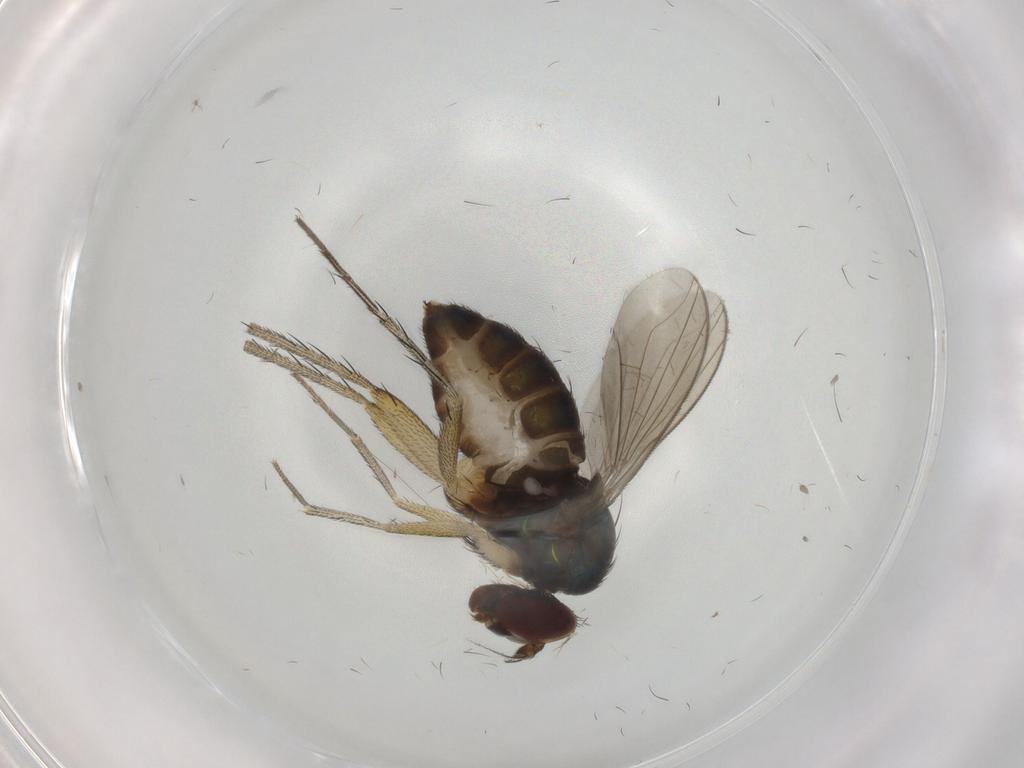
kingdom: Animalia
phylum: Arthropoda
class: Insecta
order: Diptera
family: Dolichopodidae
